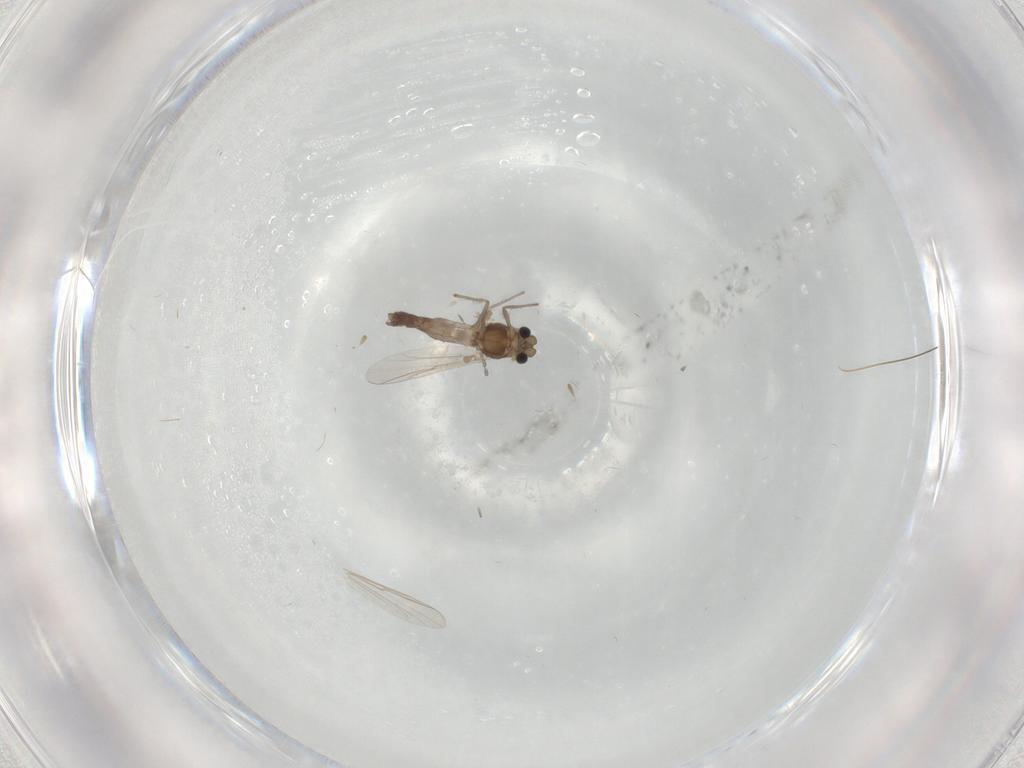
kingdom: Animalia
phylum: Arthropoda
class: Insecta
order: Diptera
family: Chironomidae
